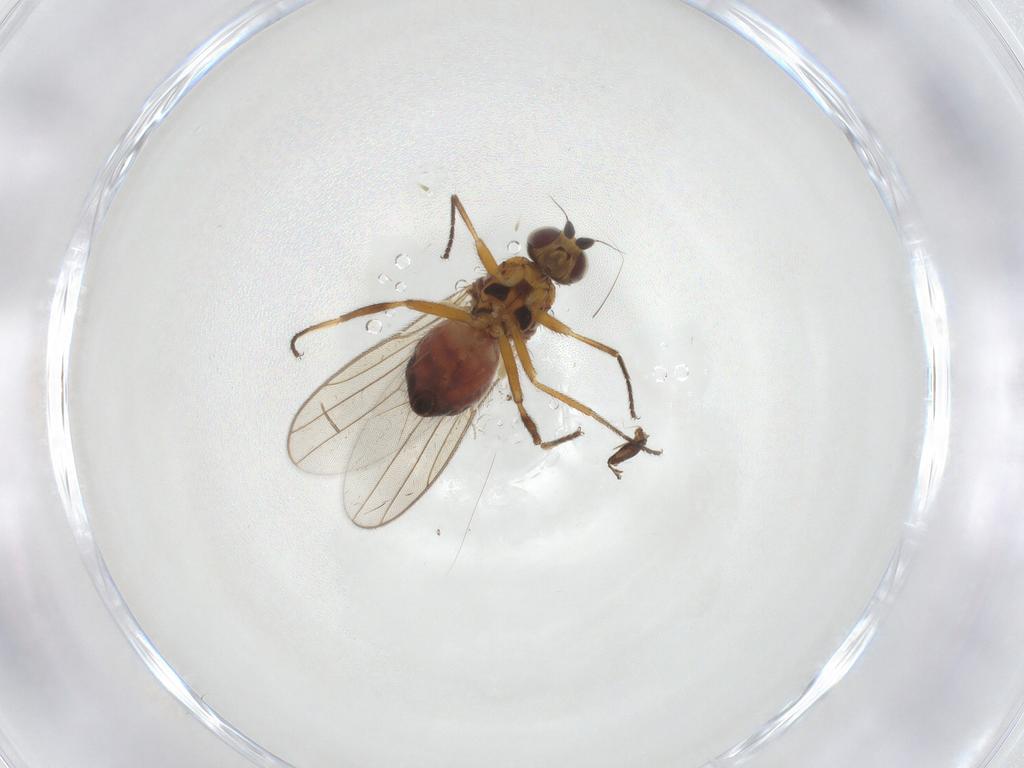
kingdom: Animalia
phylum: Arthropoda
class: Insecta
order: Diptera
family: Chloropidae
